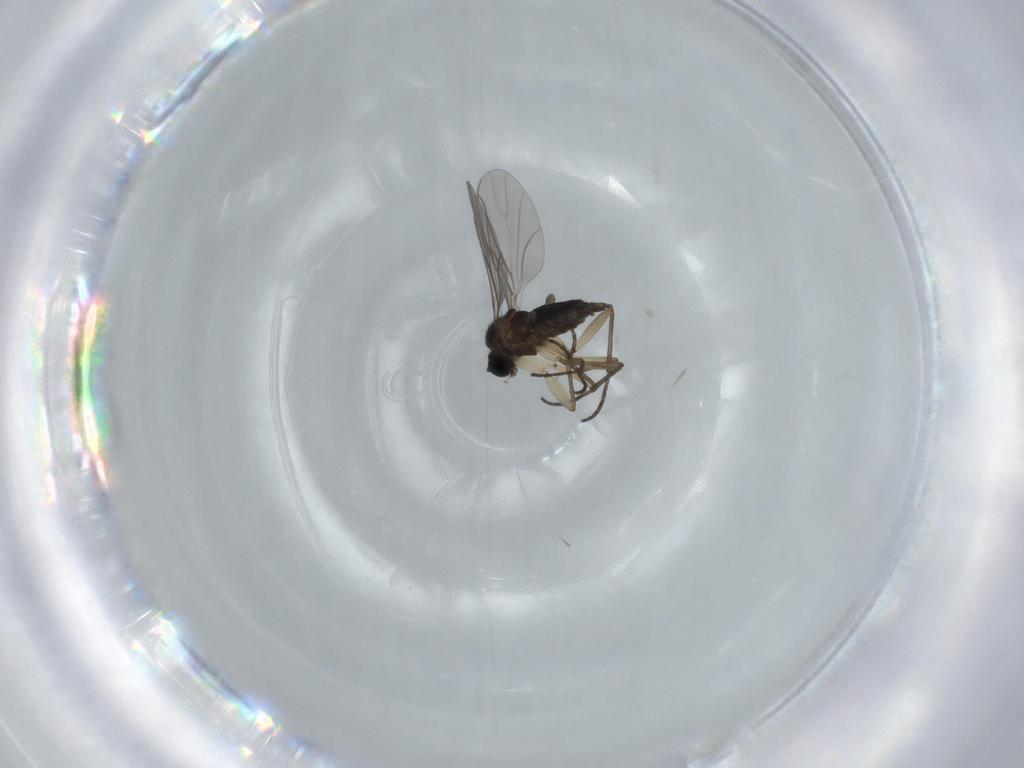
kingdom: Animalia
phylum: Arthropoda
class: Insecta
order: Diptera
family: Sciaridae
